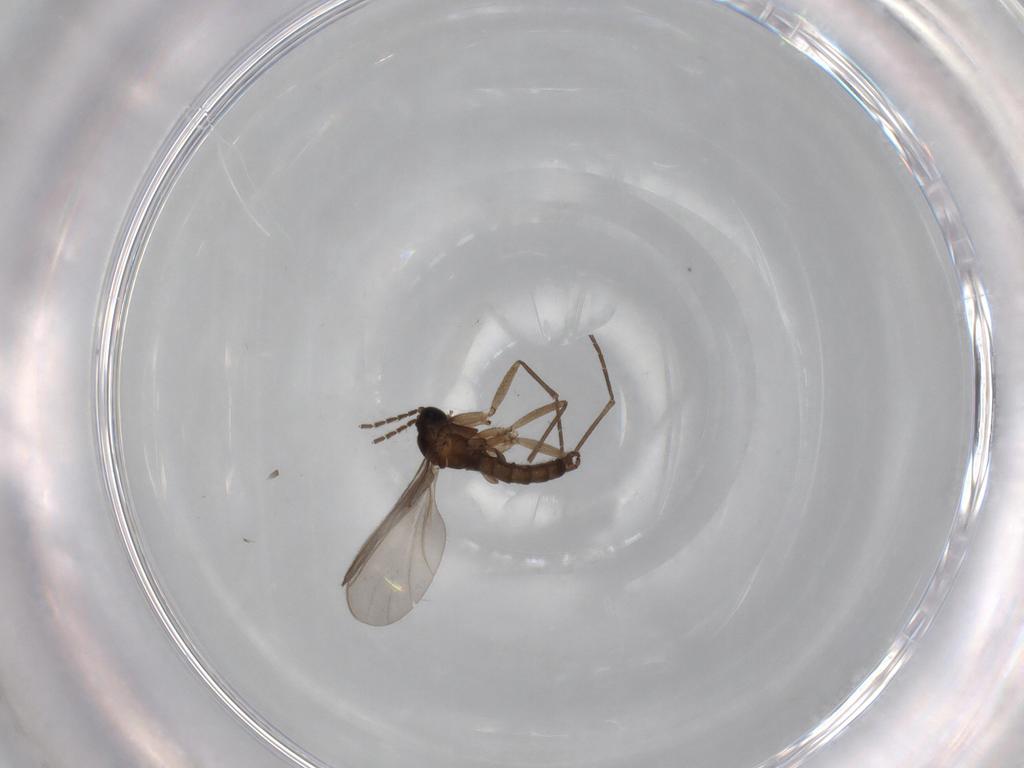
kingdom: Animalia
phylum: Arthropoda
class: Insecta
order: Diptera
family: Sciaridae
